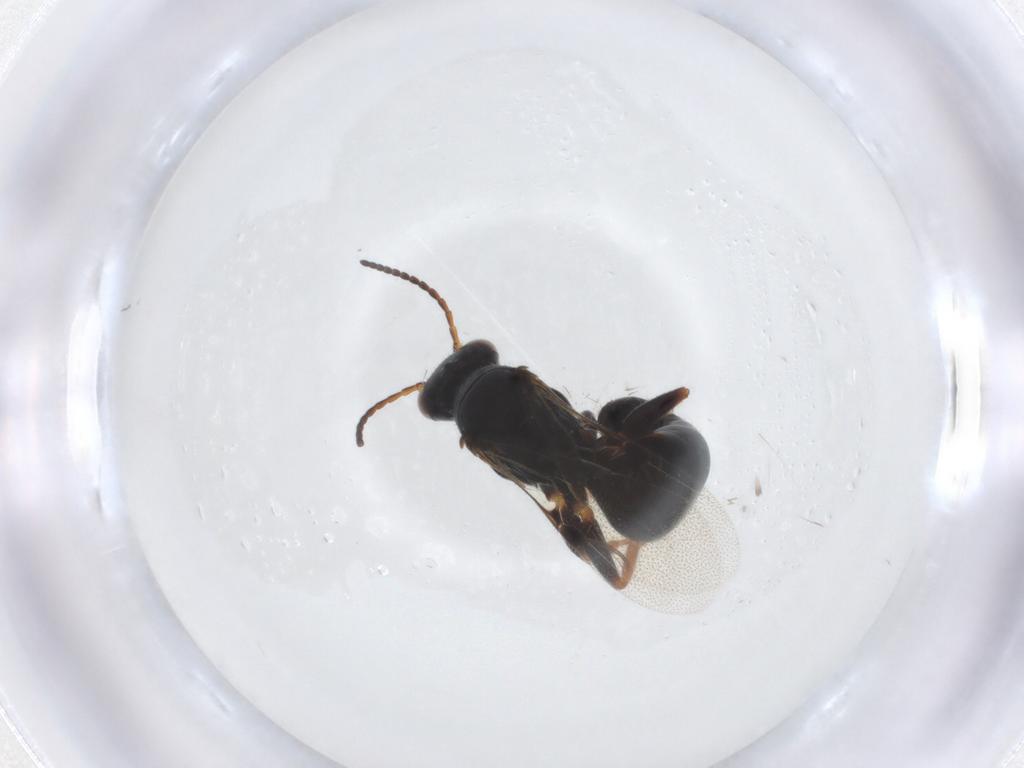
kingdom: Animalia
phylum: Arthropoda
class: Insecta
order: Hymenoptera
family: Bethylidae
